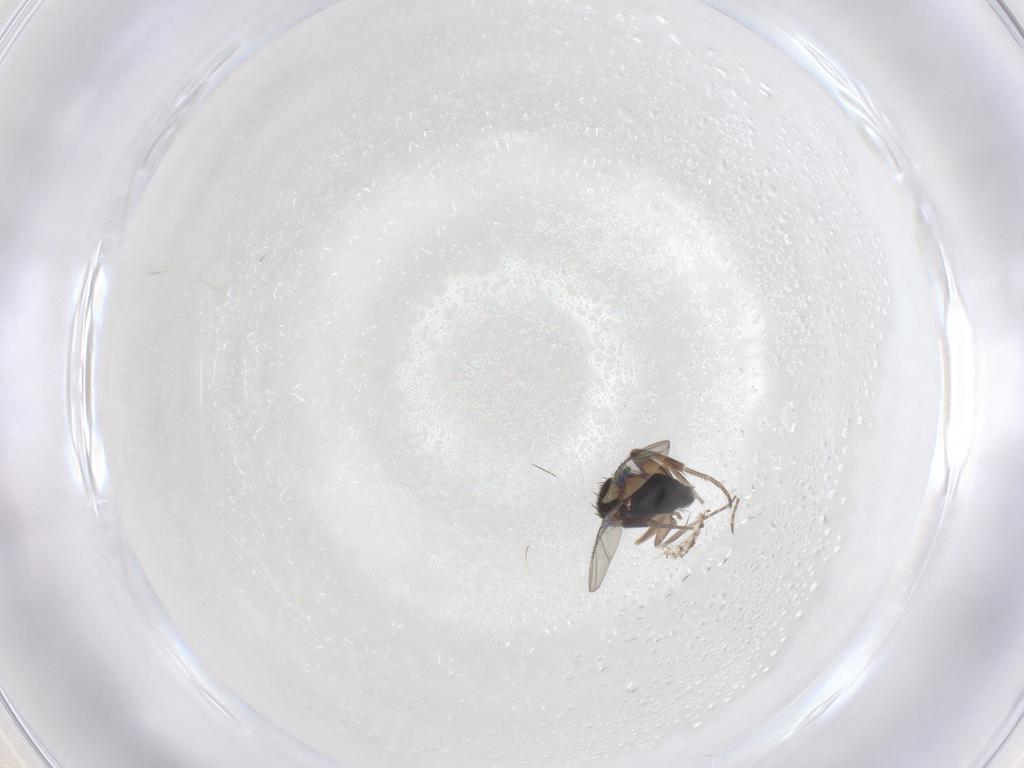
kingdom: Animalia
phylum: Arthropoda
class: Insecta
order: Diptera
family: Phoridae
